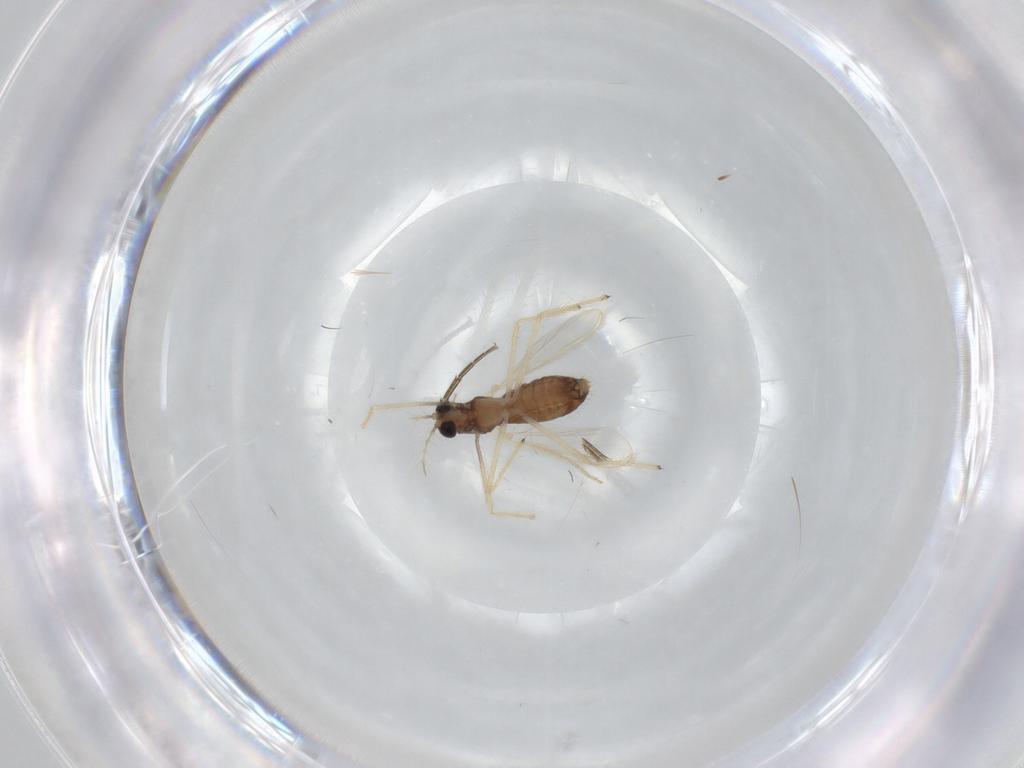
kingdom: Animalia
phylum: Arthropoda
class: Insecta
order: Diptera
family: Chironomidae
